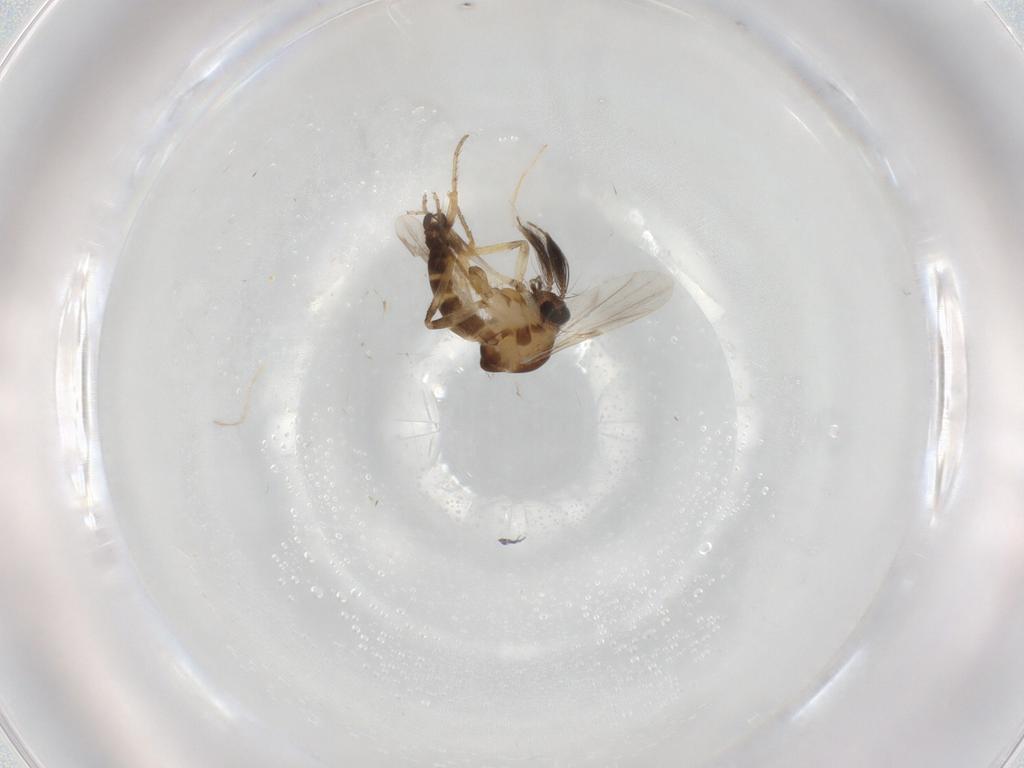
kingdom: Animalia
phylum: Arthropoda
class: Insecta
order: Diptera
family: Ceratopogonidae
